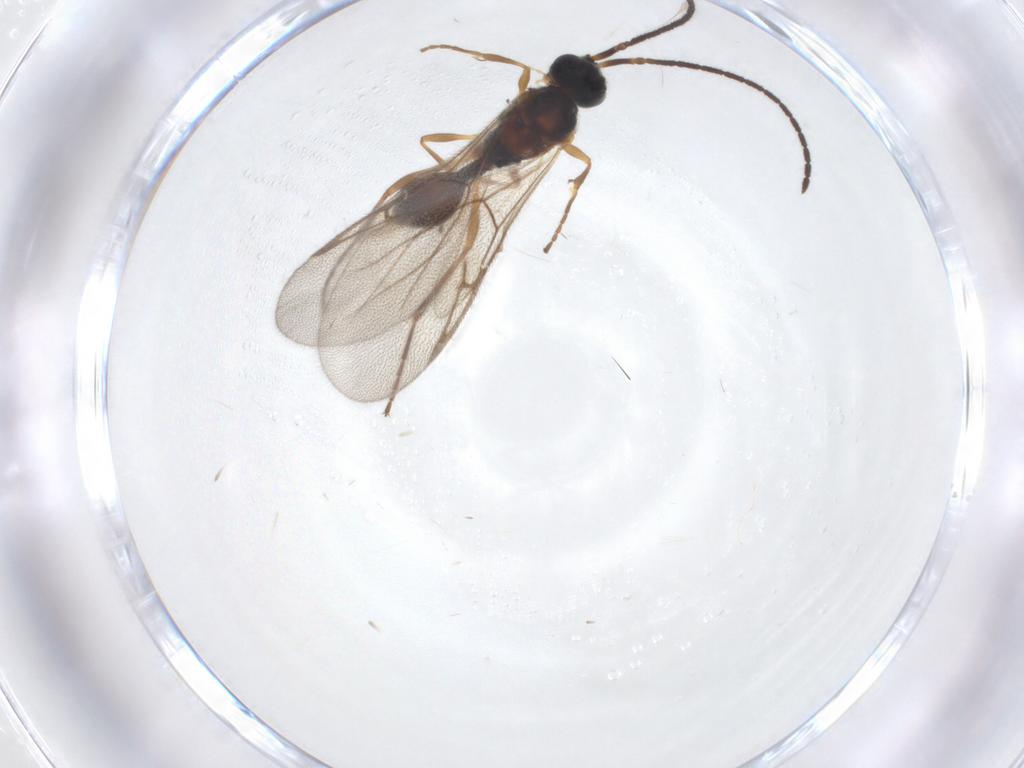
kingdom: Animalia
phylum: Arthropoda
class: Insecta
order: Hymenoptera
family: Diapriidae
